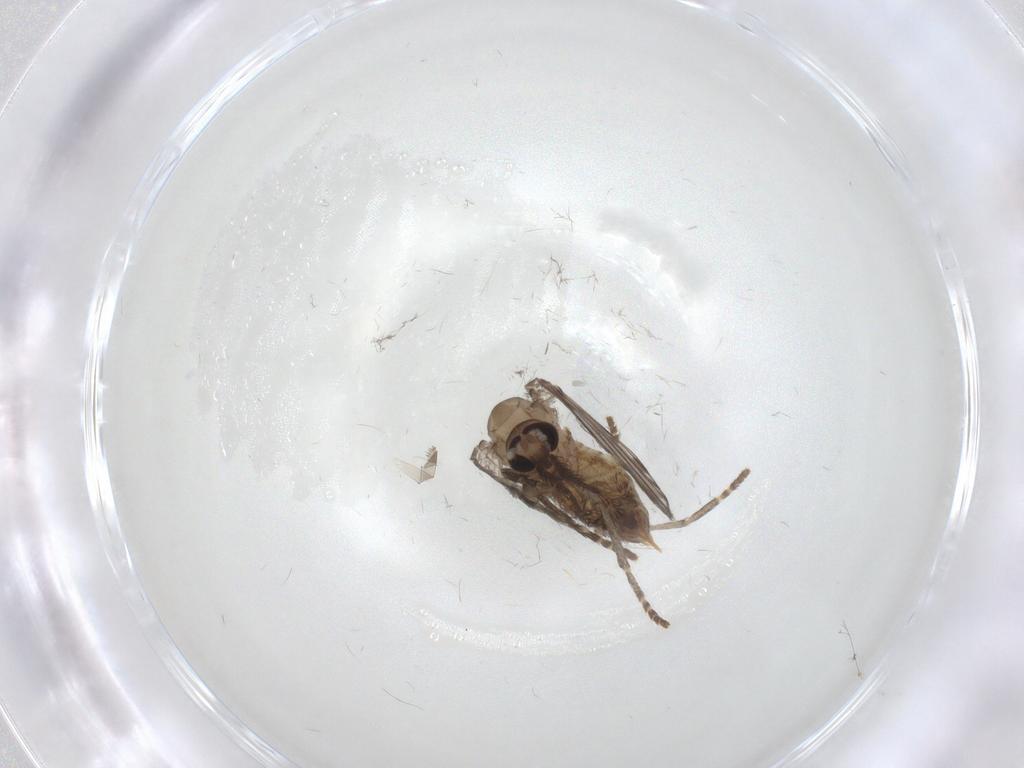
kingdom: Animalia
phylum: Arthropoda
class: Insecta
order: Diptera
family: Psychodidae
